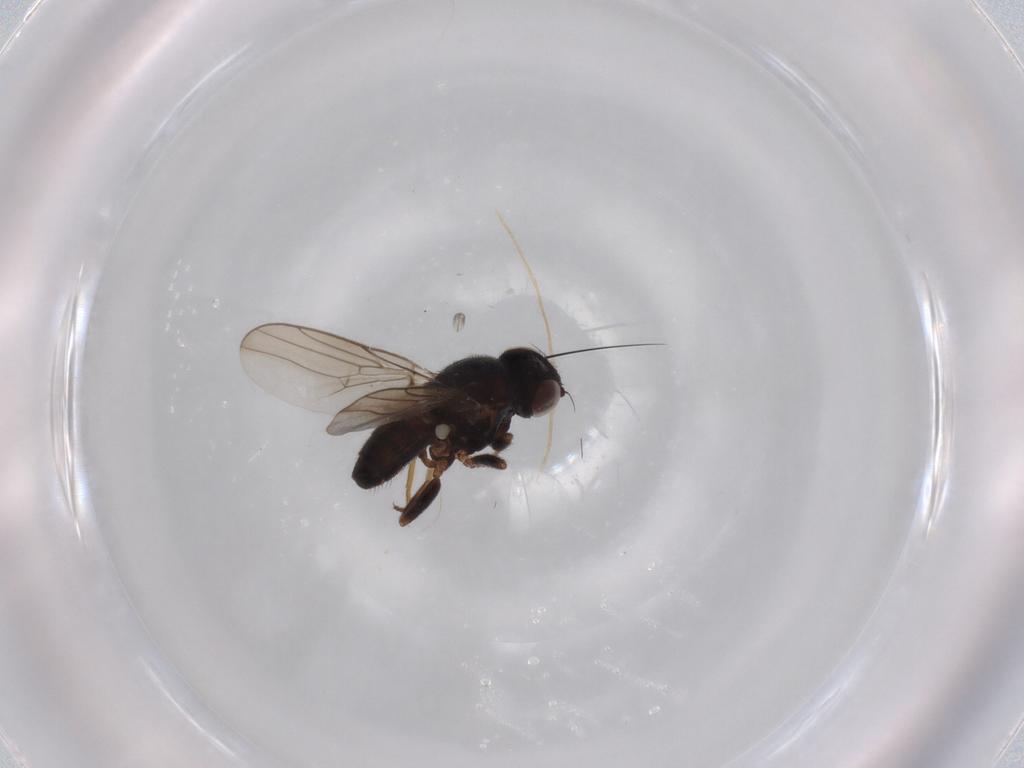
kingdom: Animalia
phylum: Arthropoda
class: Insecta
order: Diptera
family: Chloropidae
